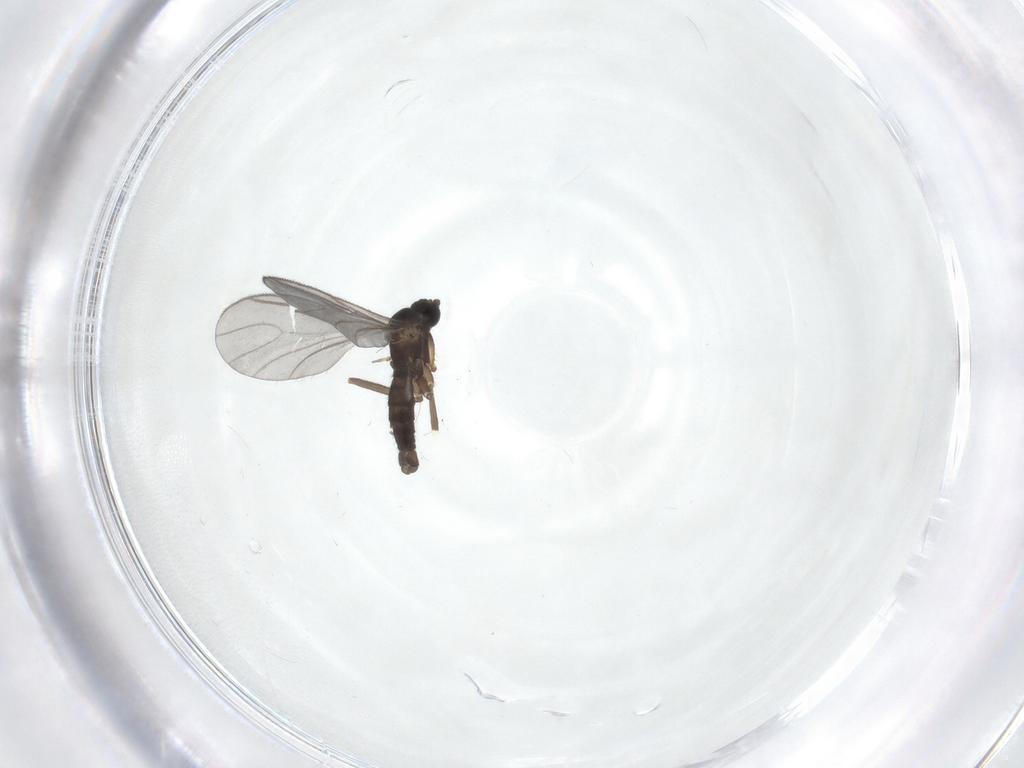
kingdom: Animalia
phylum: Arthropoda
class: Insecta
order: Diptera
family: Sciaridae
